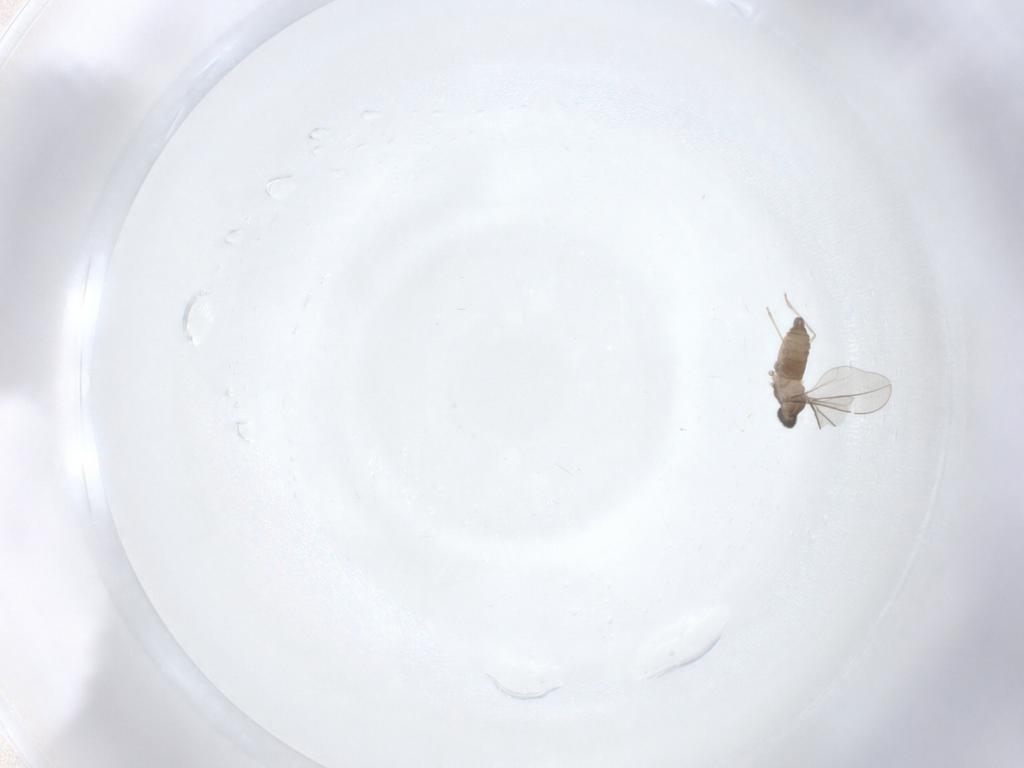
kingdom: Animalia
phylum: Arthropoda
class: Insecta
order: Diptera
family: Cecidomyiidae
